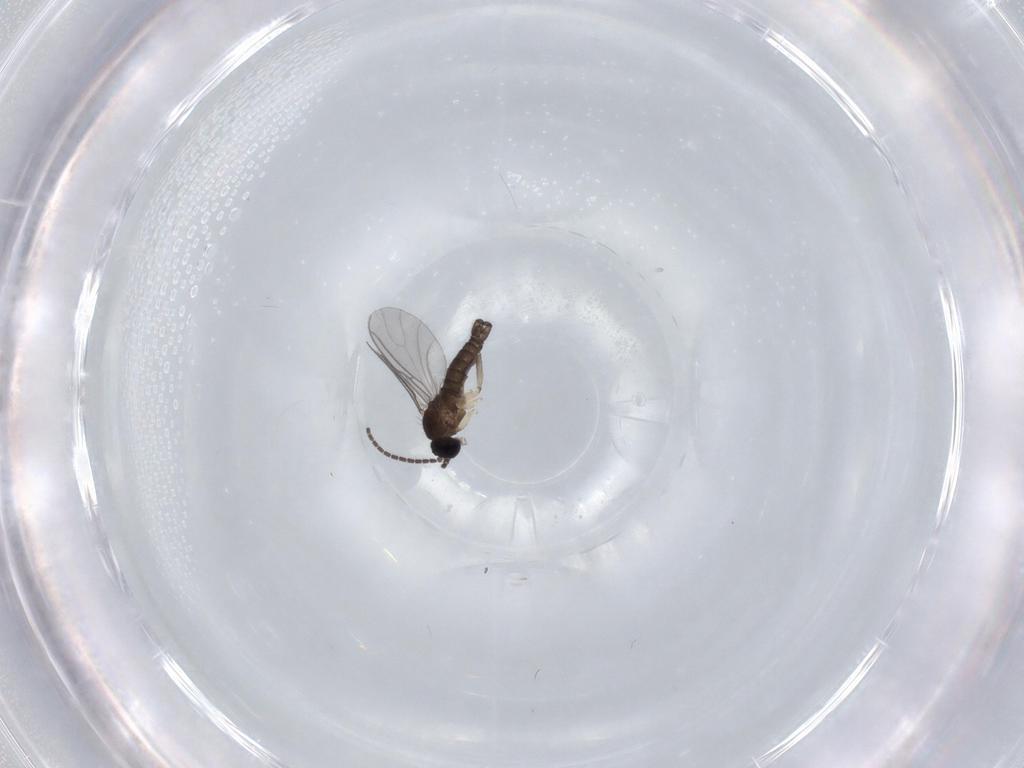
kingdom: Animalia
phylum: Arthropoda
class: Insecta
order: Diptera
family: Sciaridae
